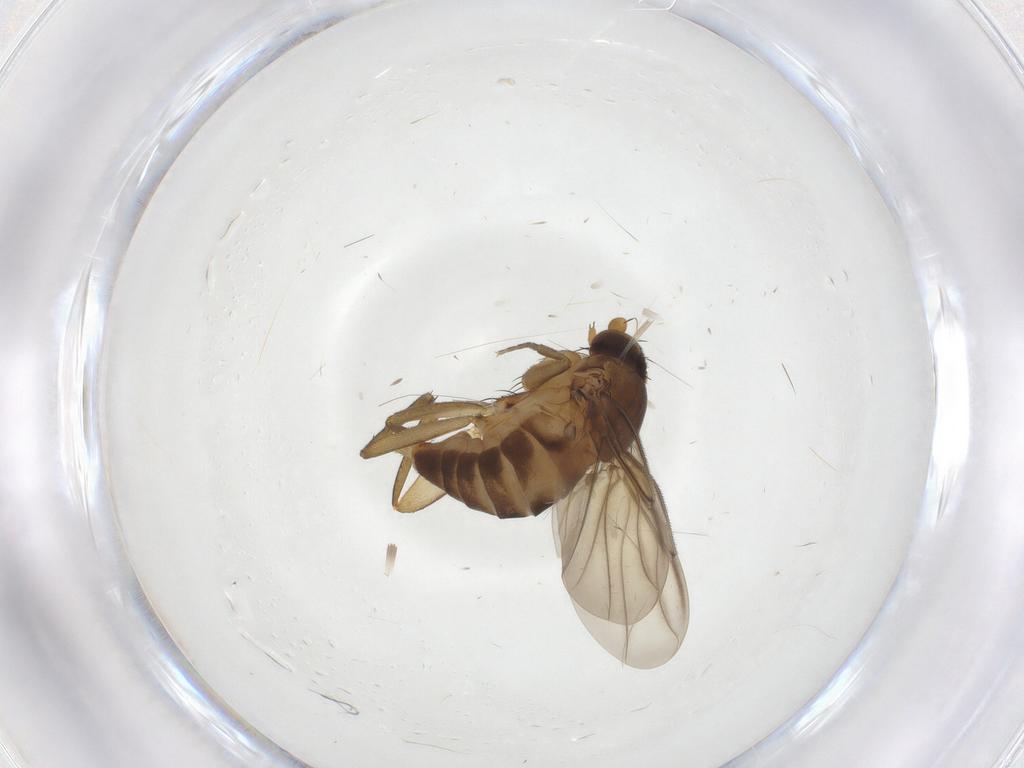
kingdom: Animalia
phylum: Arthropoda
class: Insecta
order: Diptera
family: Phoridae
